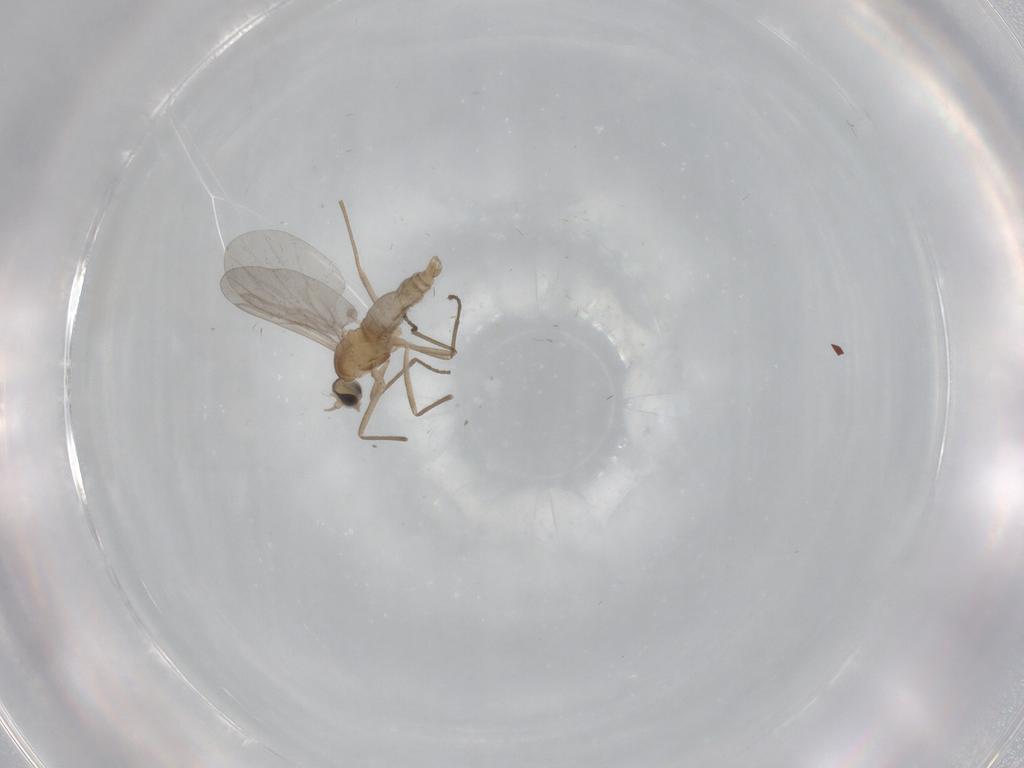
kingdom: Animalia
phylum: Arthropoda
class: Insecta
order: Diptera
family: Cecidomyiidae
